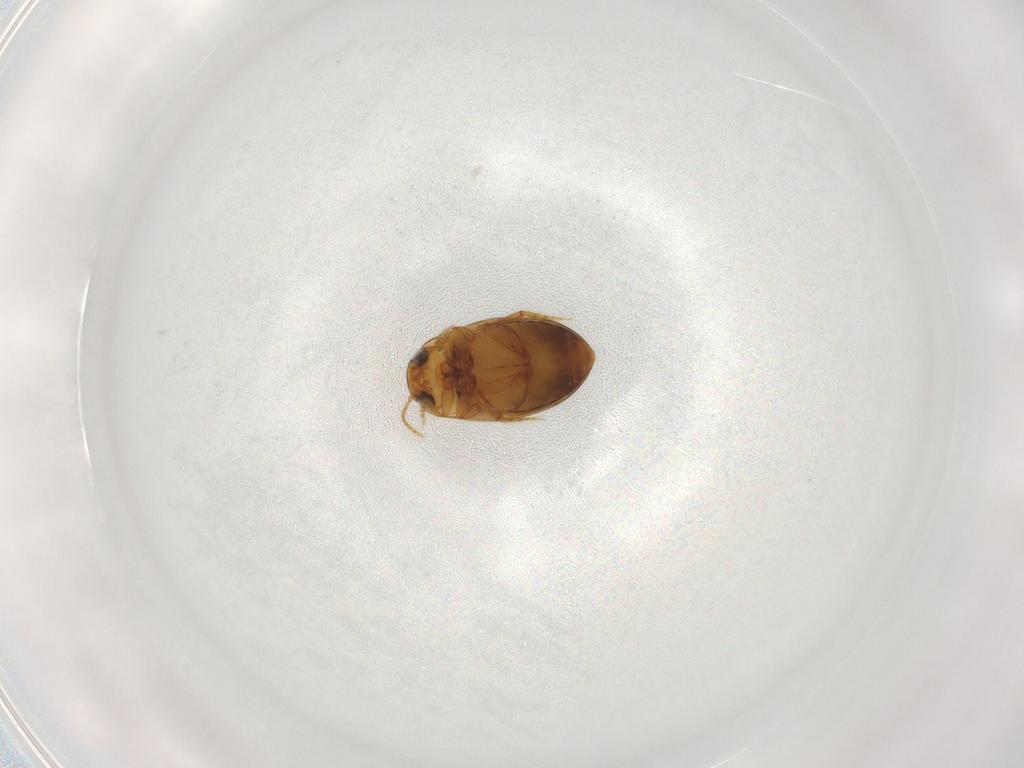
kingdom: Animalia
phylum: Arthropoda
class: Insecta
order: Coleoptera
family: Dytiscidae
